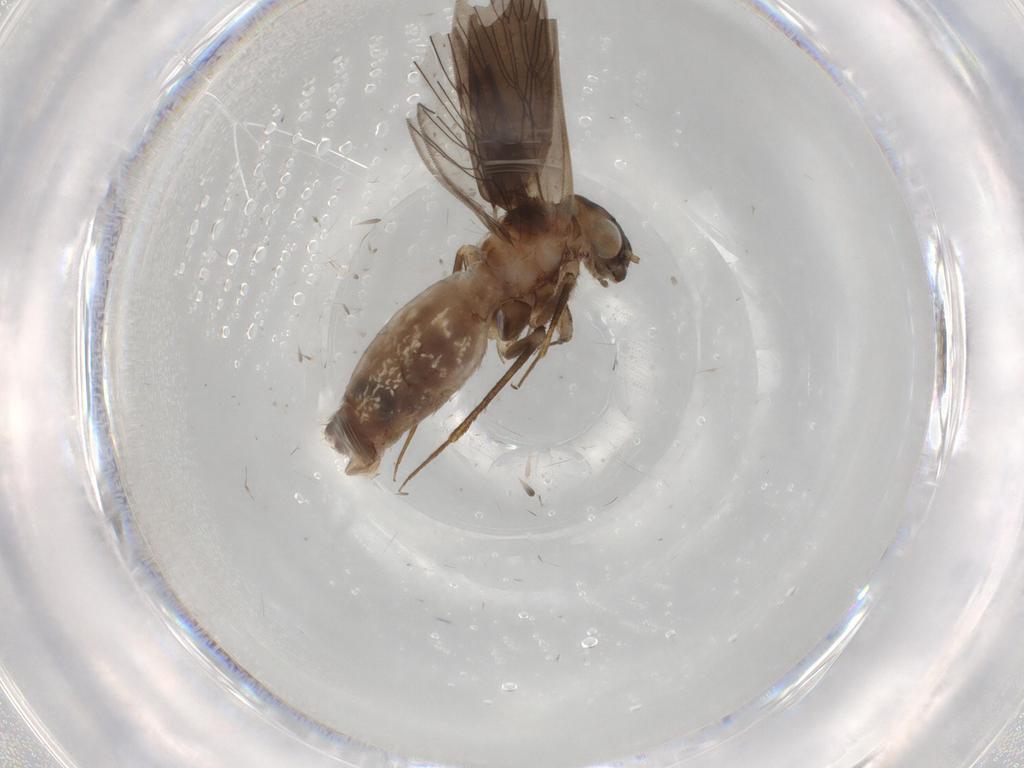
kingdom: Animalia
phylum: Arthropoda
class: Insecta
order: Psocodea
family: Lepidopsocidae
